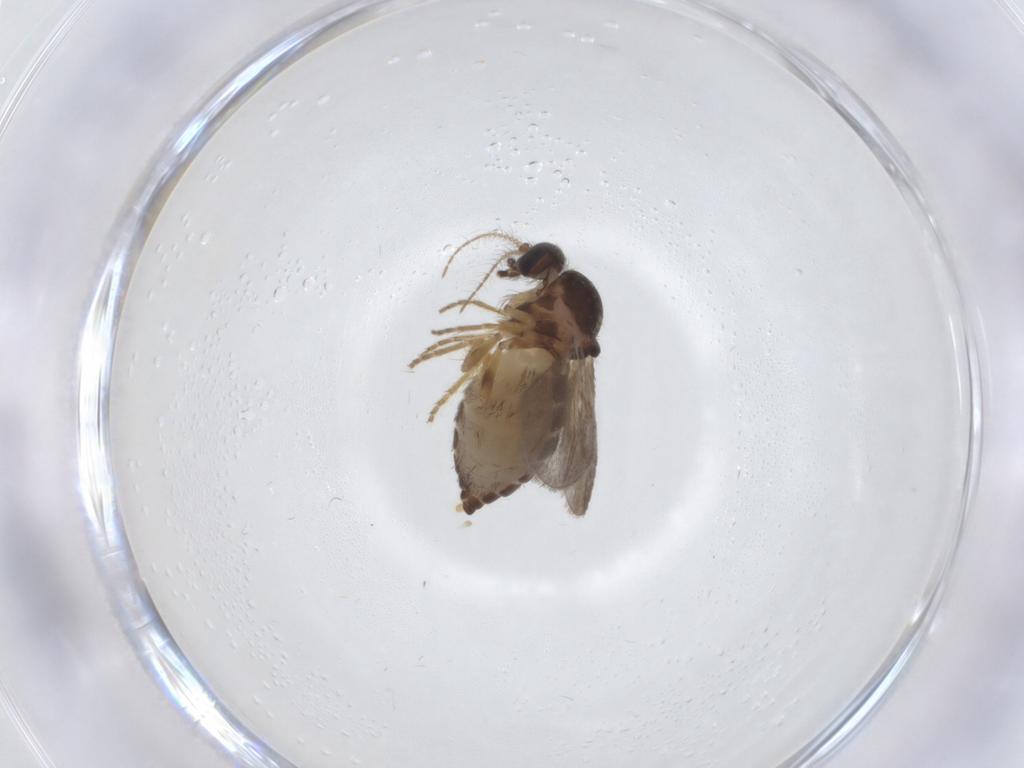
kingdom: Animalia
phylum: Arthropoda
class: Insecta
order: Diptera
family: Ceratopogonidae
